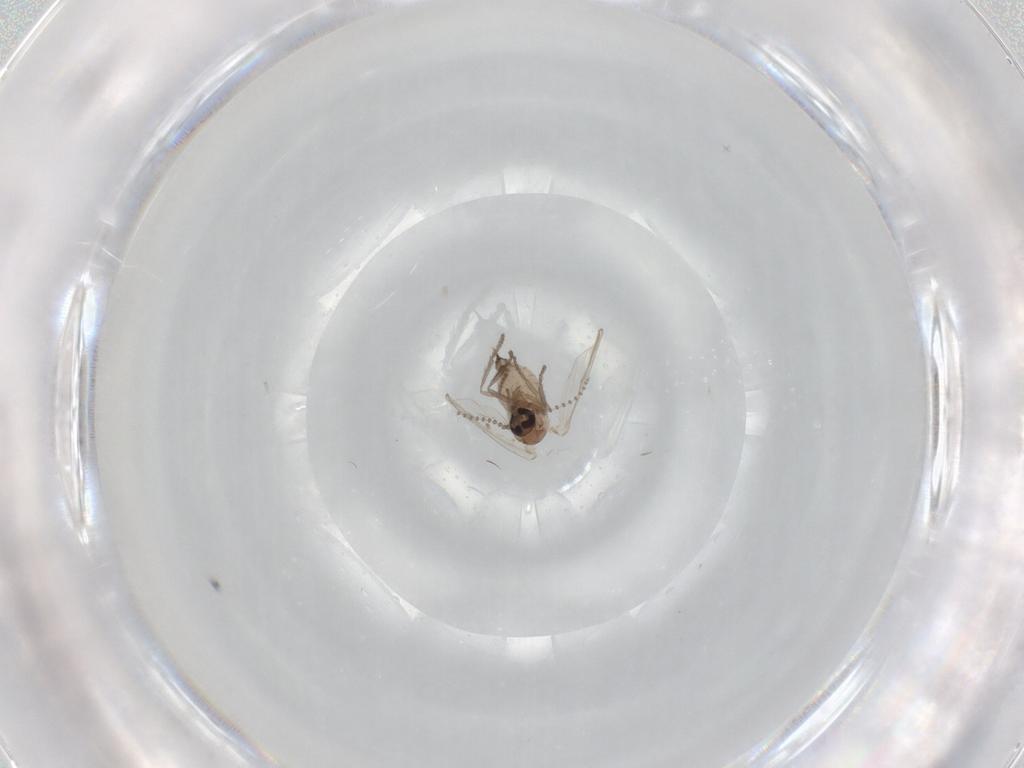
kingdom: Animalia
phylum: Arthropoda
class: Insecta
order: Diptera
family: Psychodidae
